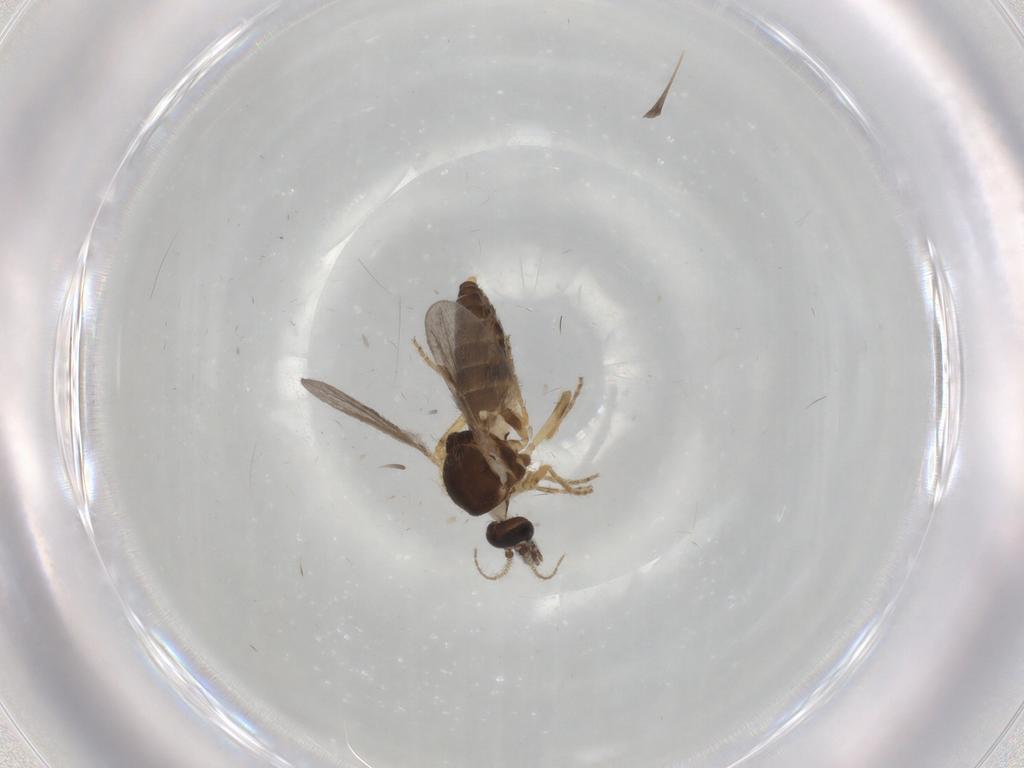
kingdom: Animalia
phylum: Arthropoda
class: Insecta
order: Diptera
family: Ceratopogonidae
